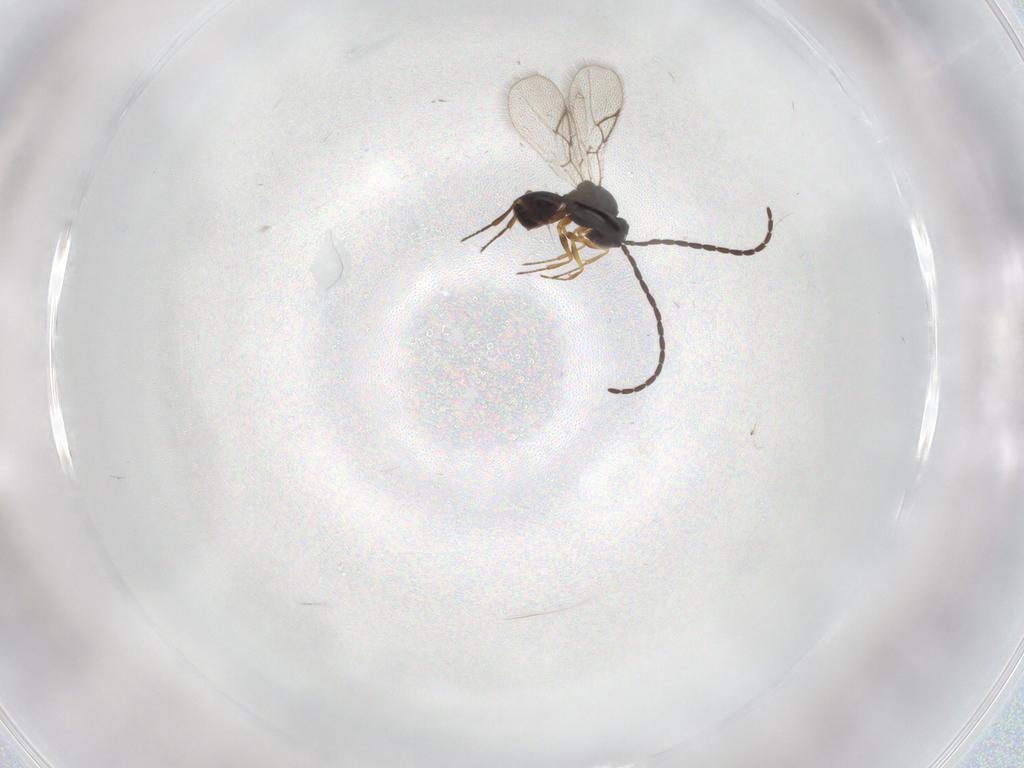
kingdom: Animalia
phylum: Arthropoda
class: Insecta
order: Hymenoptera
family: Figitidae
